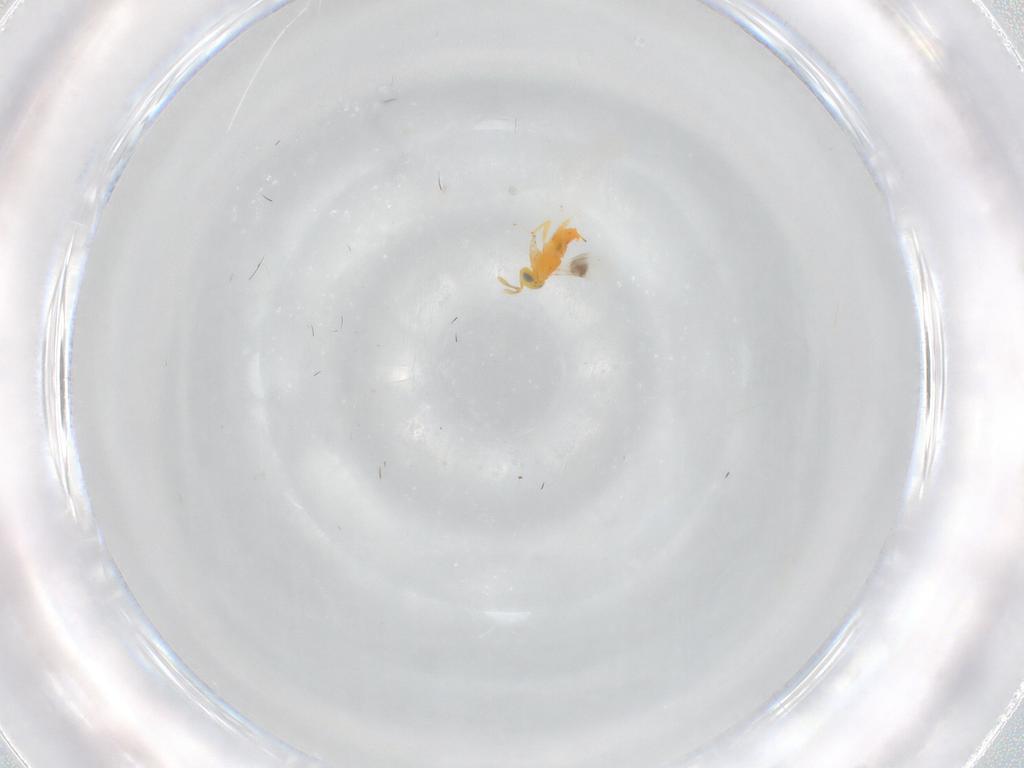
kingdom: Animalia
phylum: Arthropoda
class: Insecta
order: Hymenoptera
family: Encyrtidae
